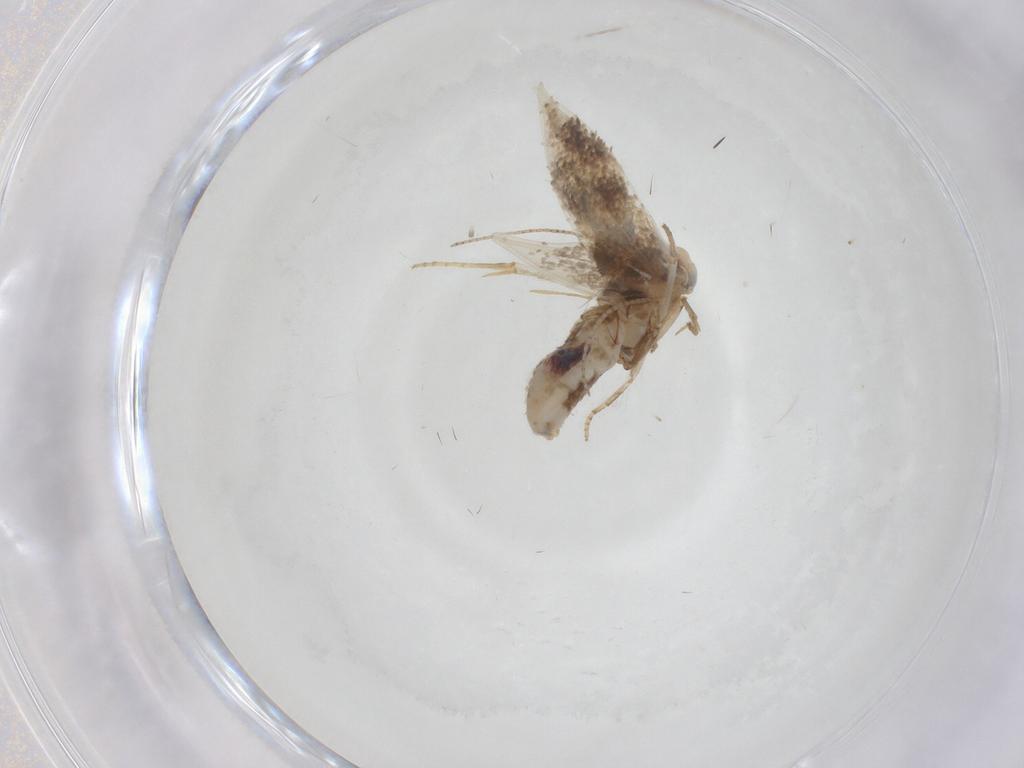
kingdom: Animalia
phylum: Arthropoda
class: Insecta
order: Lepidoptera
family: Bucculatricidae
